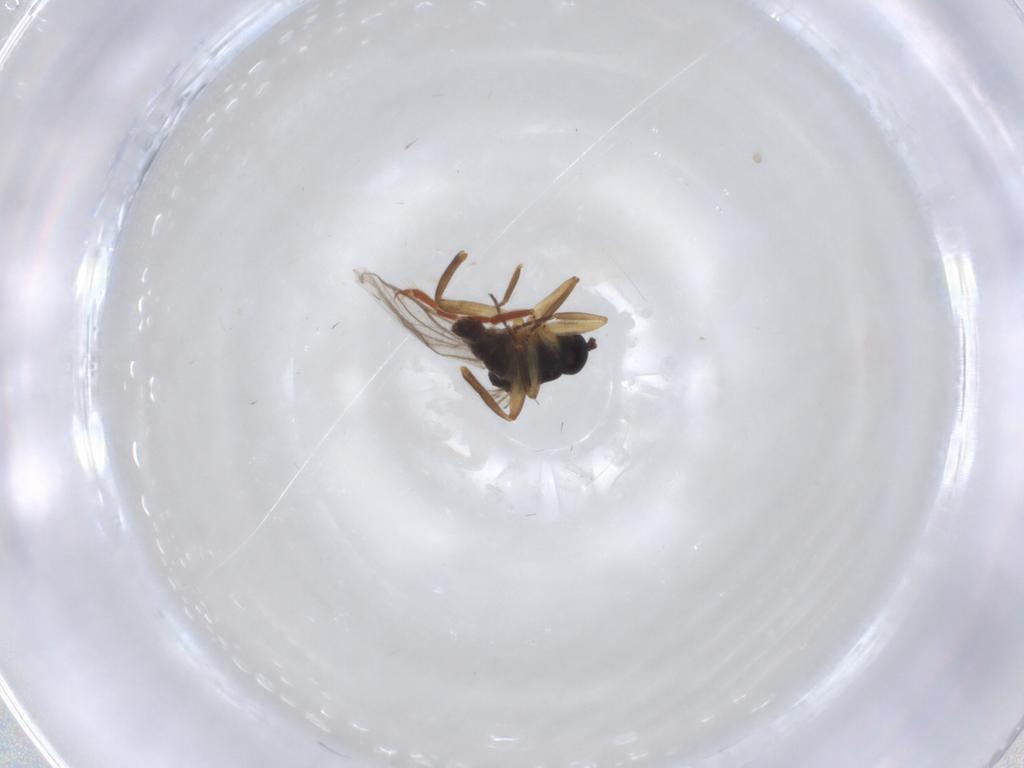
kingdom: Animalia
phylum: Arthropoda
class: Insecta
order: Diptera
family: Hybotidae
